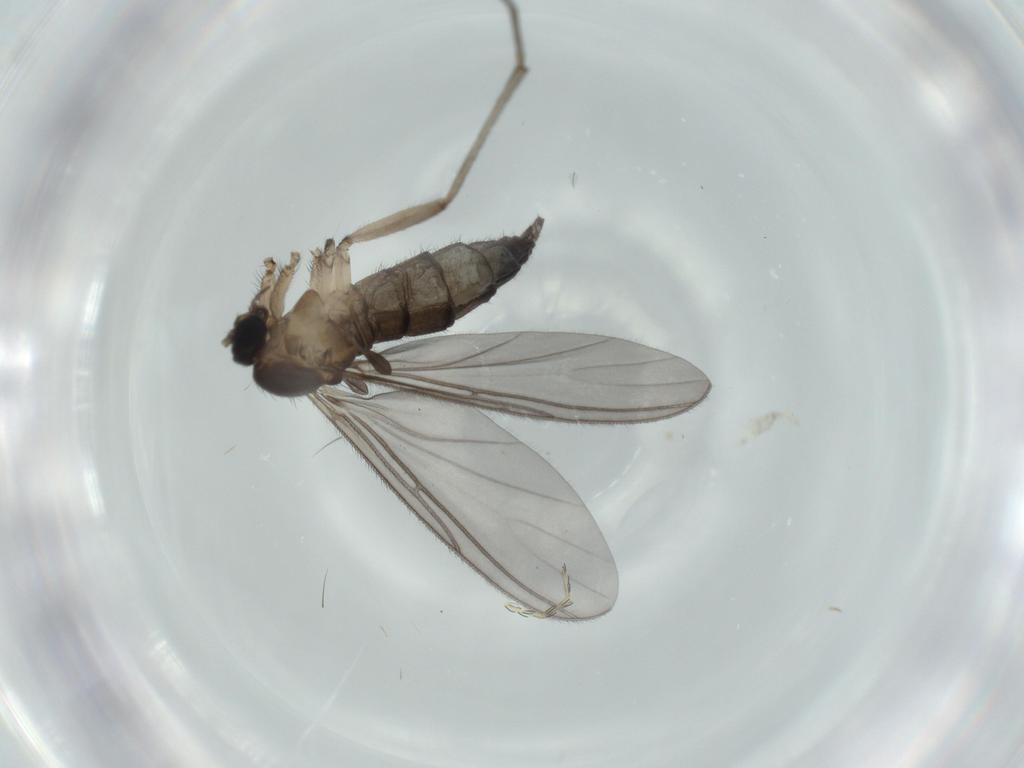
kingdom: Animalia
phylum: Arthropoda
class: Insecta
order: Diptera
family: Sciaridae
